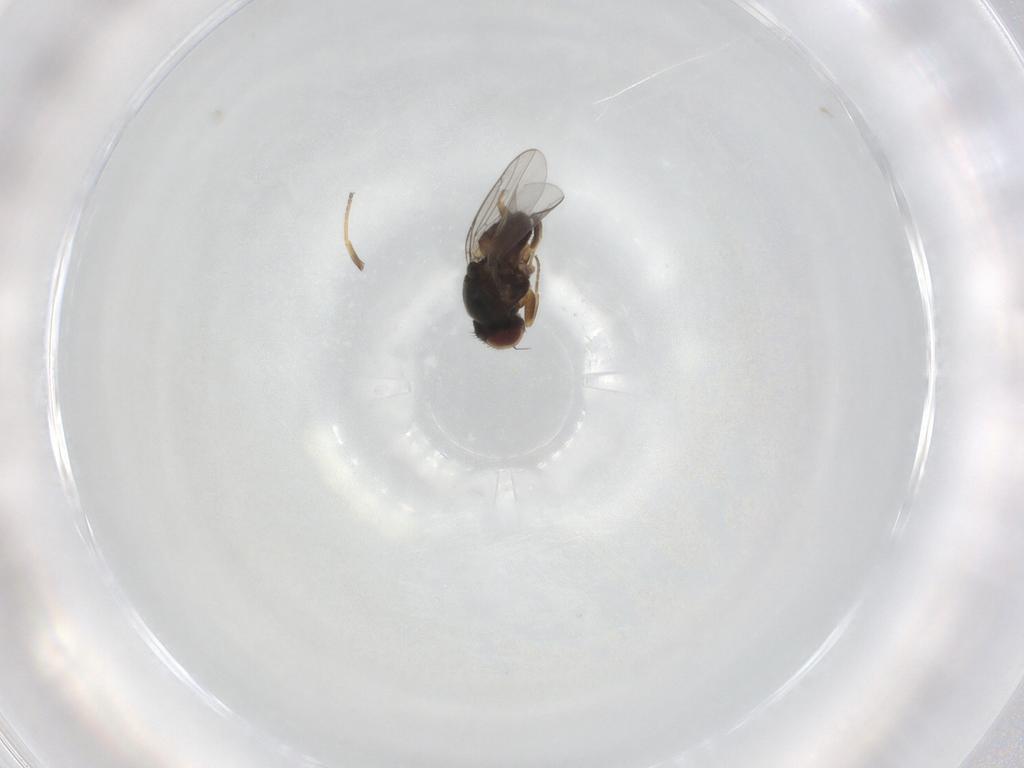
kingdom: Animalia
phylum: Arthropoda
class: Insecta
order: Diptera
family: Chloropidae
